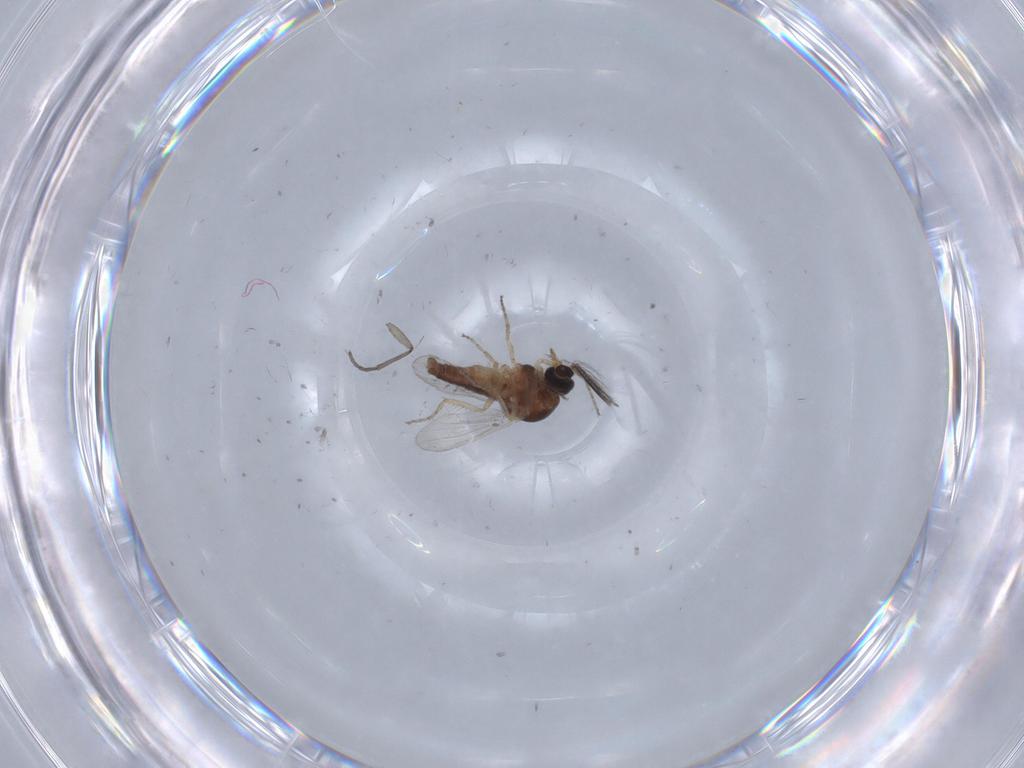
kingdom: Animalia
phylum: Arthropoda
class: Insecta
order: Diptera
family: Ceratopogonidae
